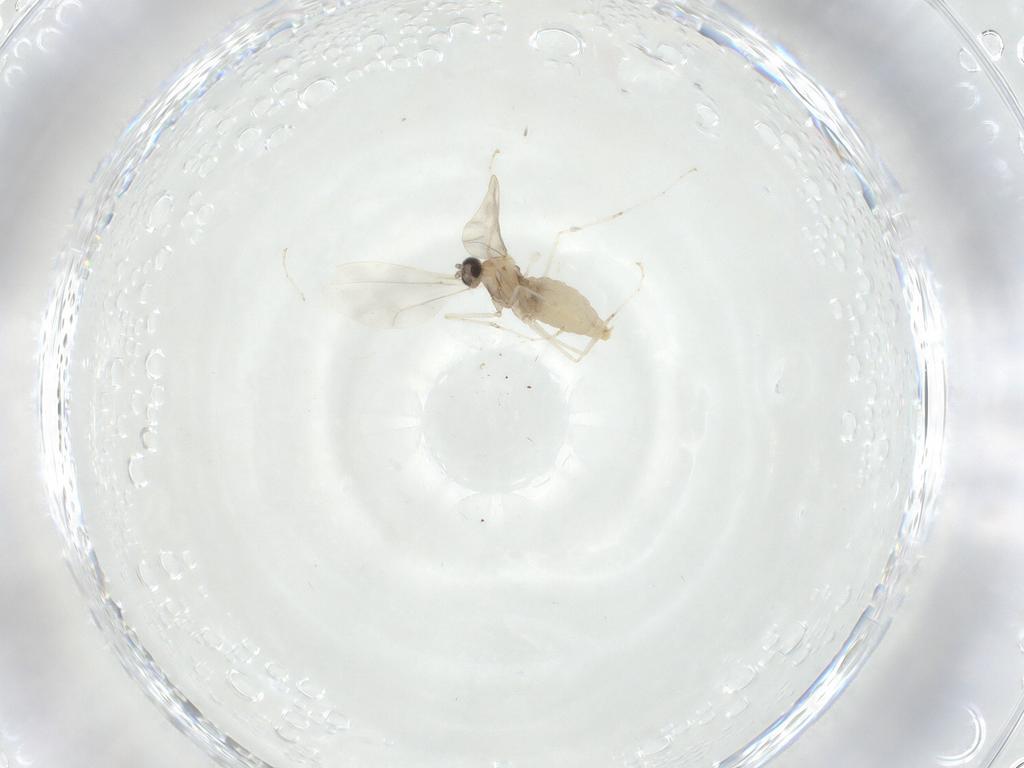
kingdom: Animalia
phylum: Arthropoda
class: Insecta
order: Diptera
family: Cecidomyiidae
